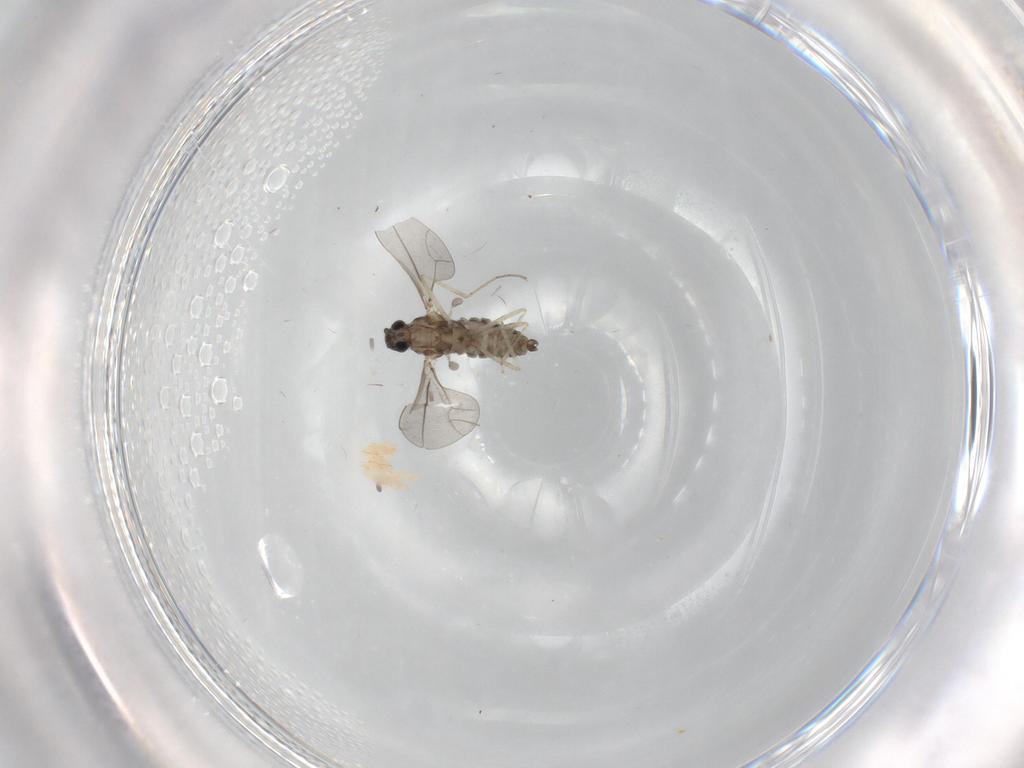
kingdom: Animalia
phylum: Arthropoda
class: Insecta
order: Diptera
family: Cecidomyiidae
